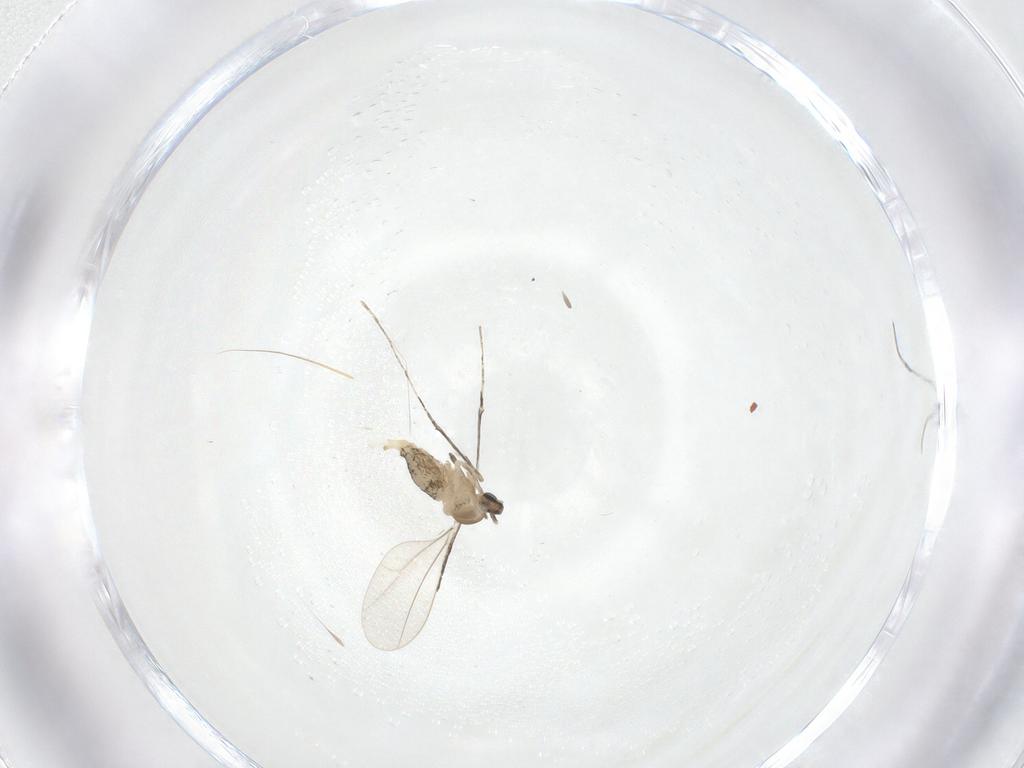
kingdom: Animalia
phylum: Arthropoda
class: Insecta
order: Diptera
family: Cecidomyiidae
